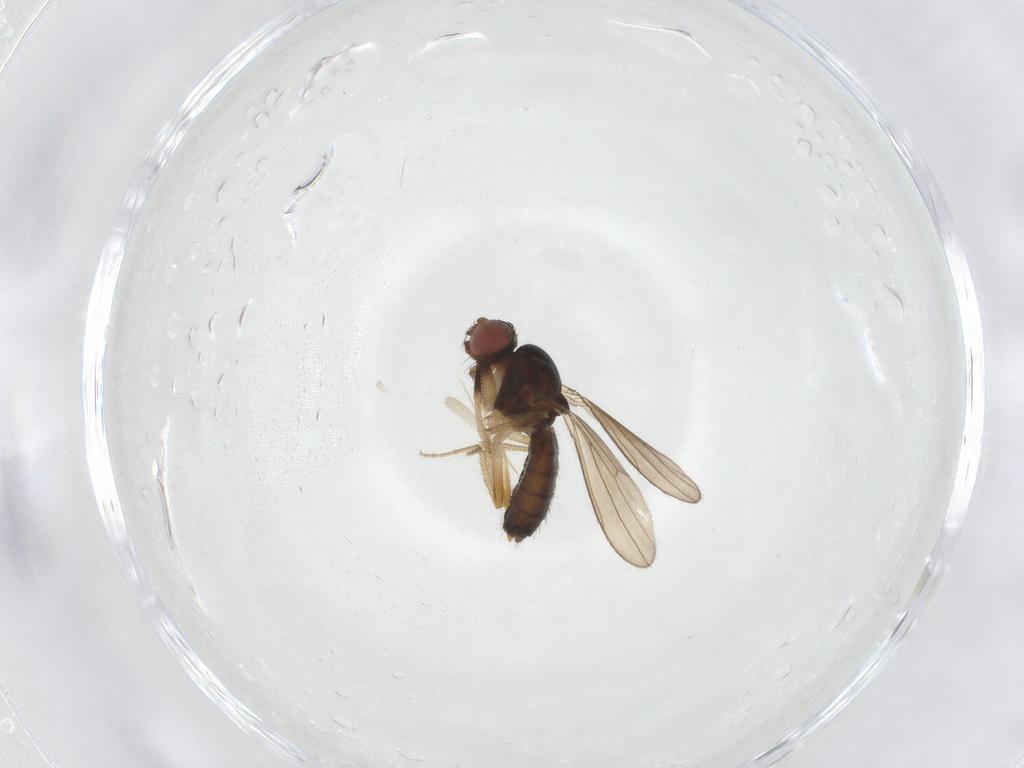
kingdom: Animalia
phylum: Arthropoda
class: Insecta
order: Diptera
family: Drosophilidae
